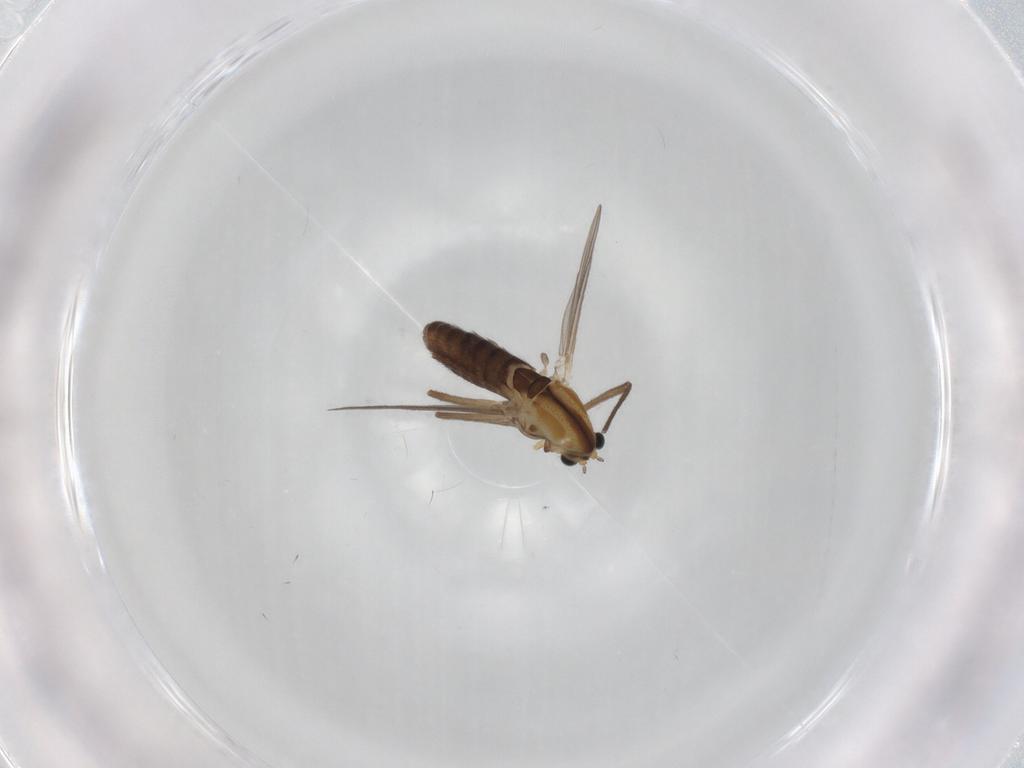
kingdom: Animalia
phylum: Arthropoda
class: Insecta
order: Diptera
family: Chironomidae
